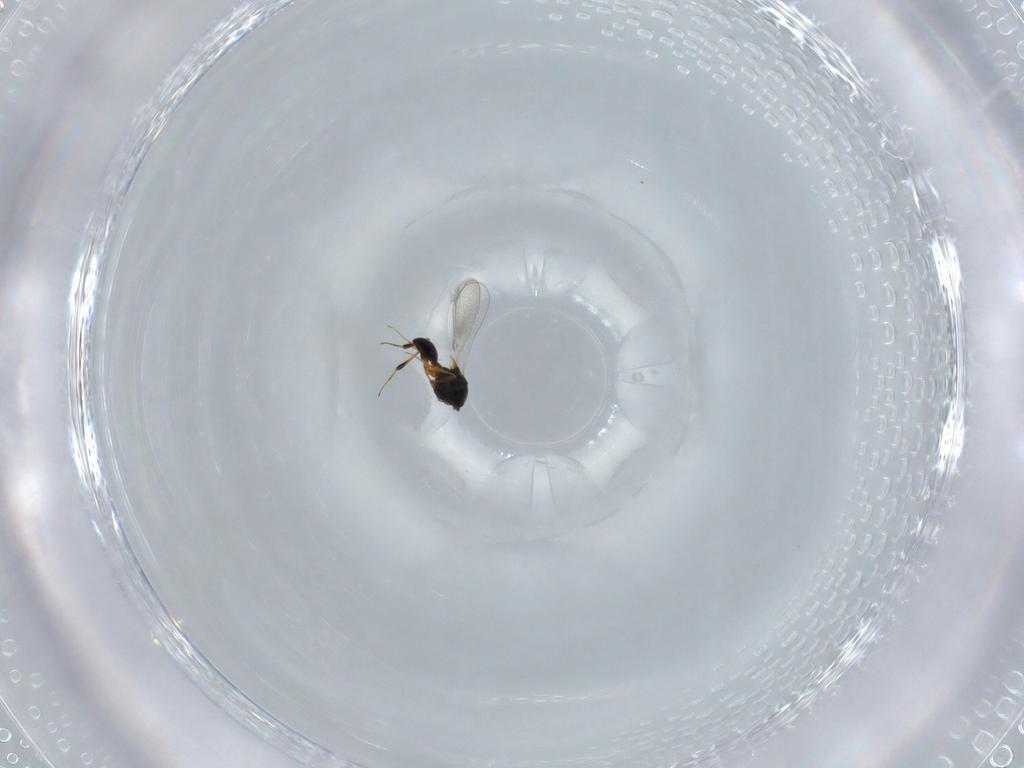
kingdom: Animalia
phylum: Arthropoda
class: Insecta
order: Hymenoptera
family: Platygastridae
